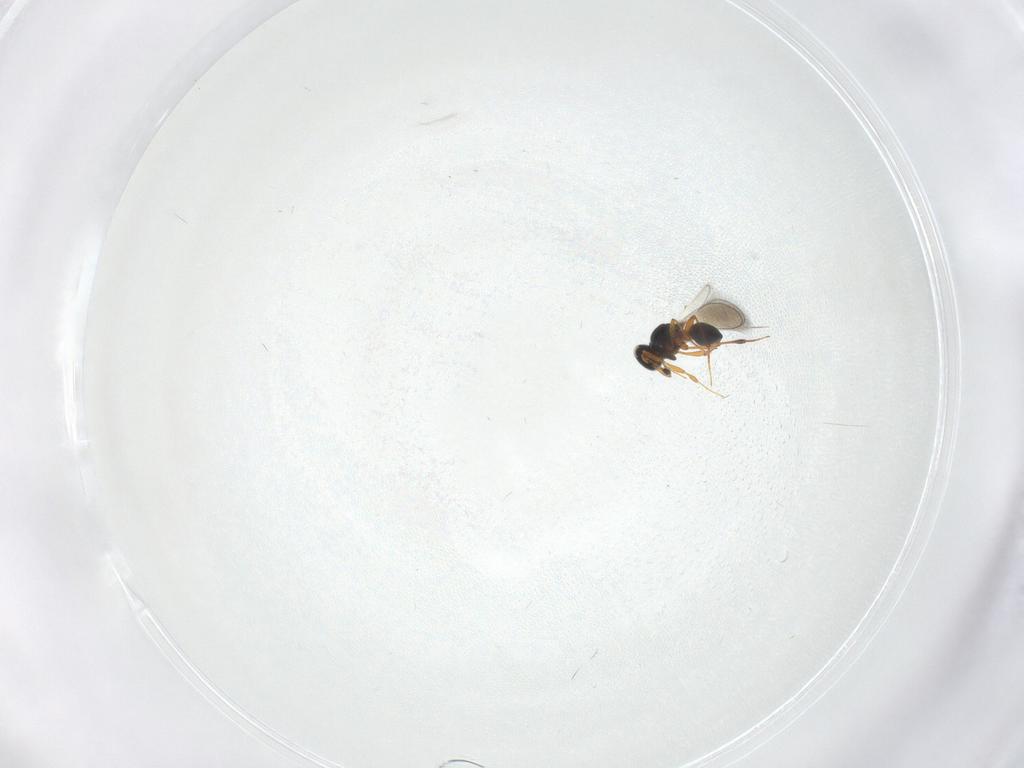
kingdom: Animalia
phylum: Arthropoda
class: Insecta
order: Hymenoptera
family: Platygastridae
